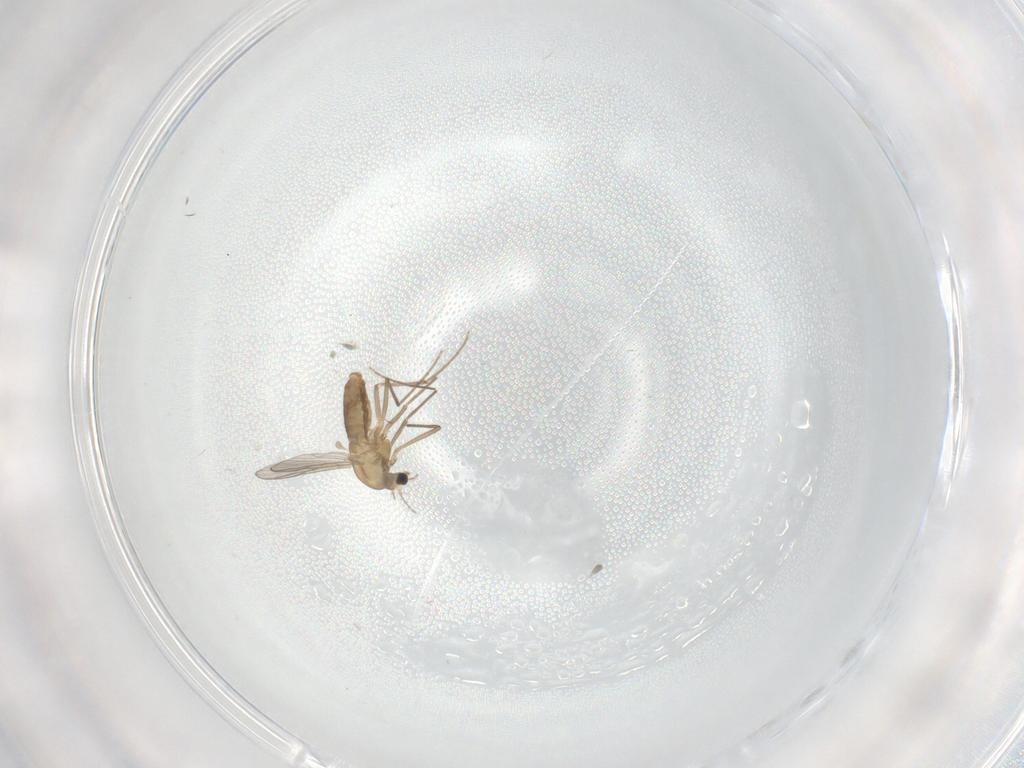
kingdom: Animalia
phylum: Arthropoda
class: Insecta
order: Diptera
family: Chironomidae
